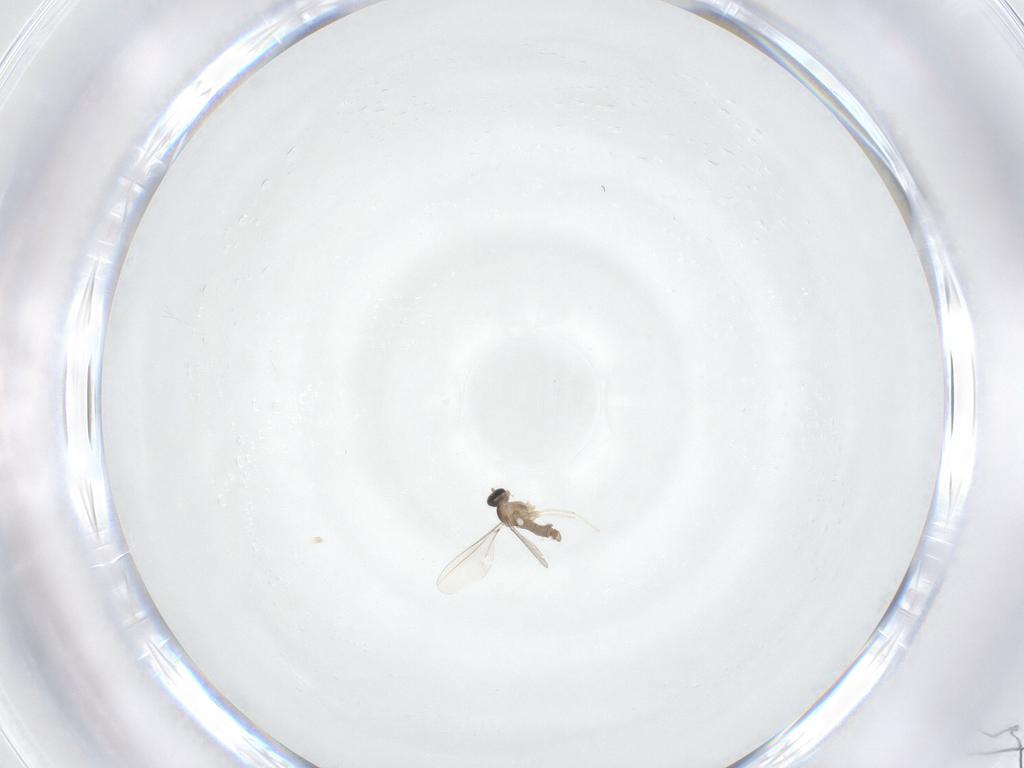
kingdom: Animalia
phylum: Arthropoda
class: Insecta
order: Diptera
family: Cecidomyiidae
